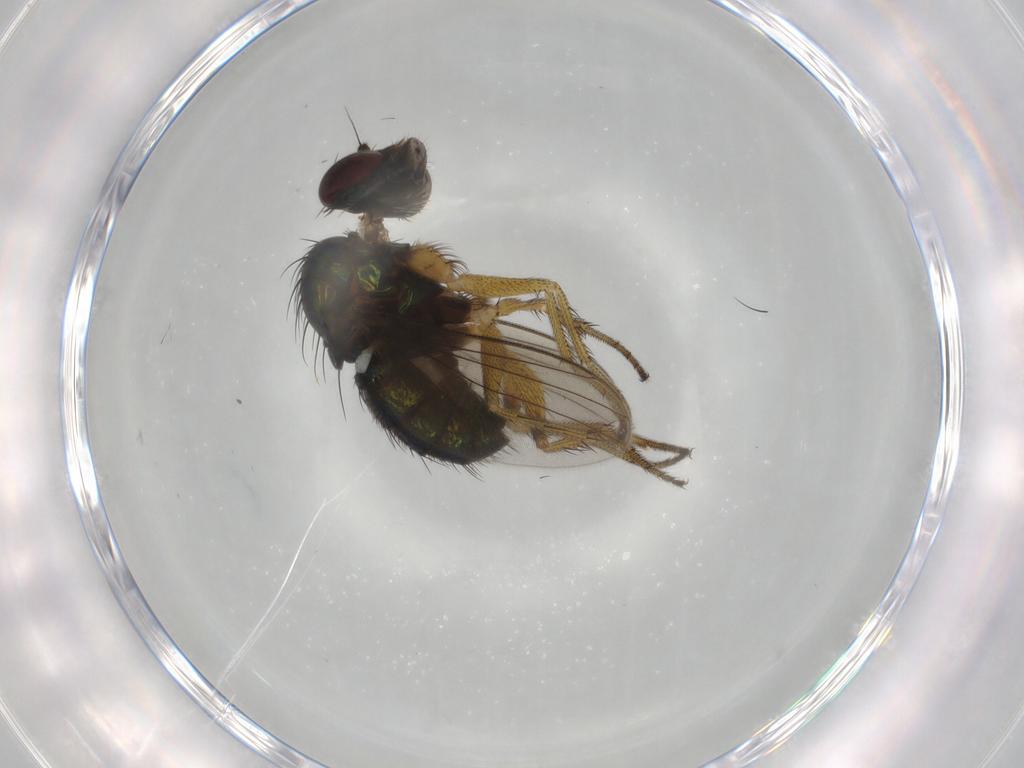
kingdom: Animalia
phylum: Arthropoda
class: Insecta
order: Diptera
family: Dolichopodidae
